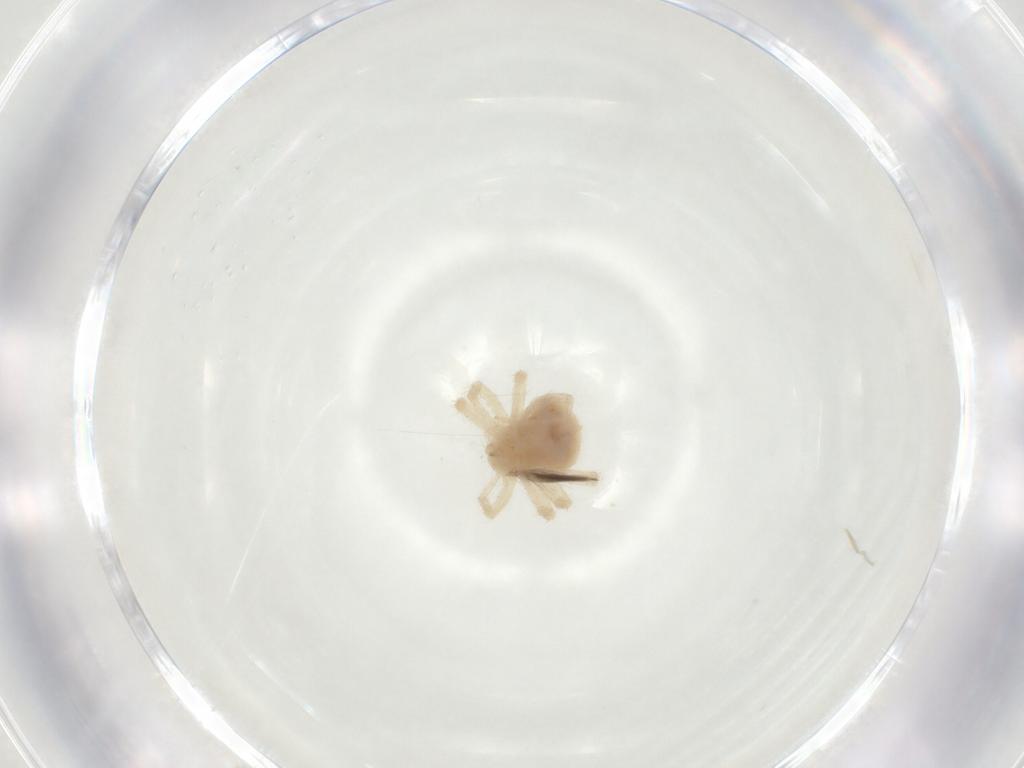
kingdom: Animalia
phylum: Arthropoda
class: Arachnida
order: Trombidiformes
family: Anystidae
